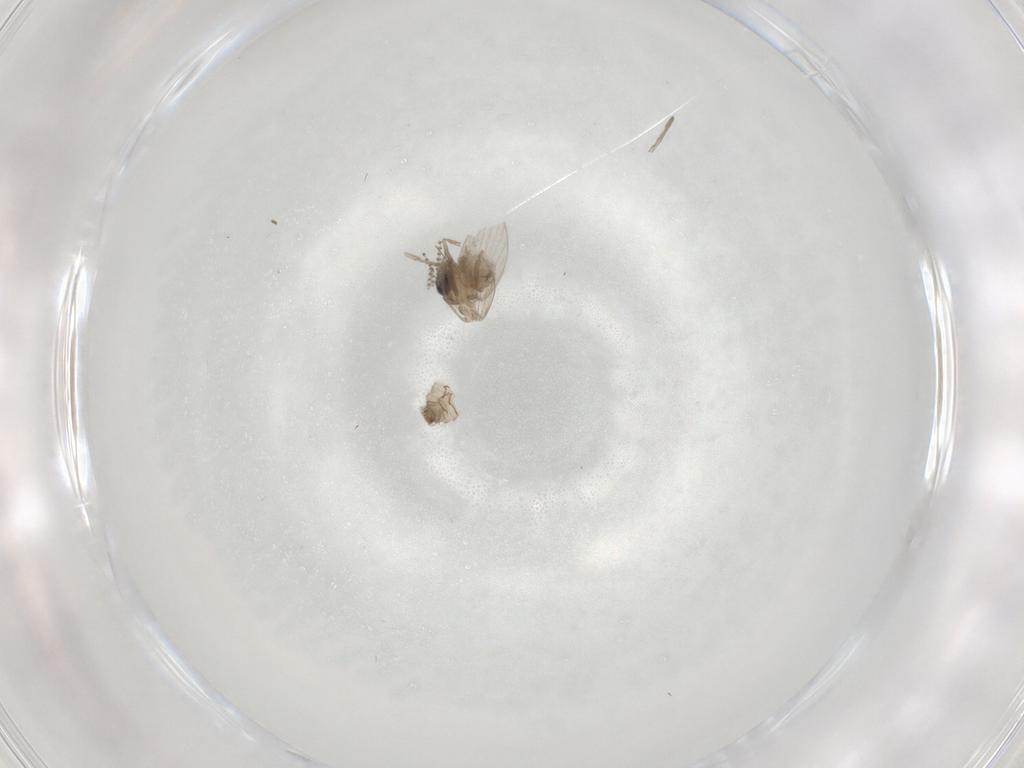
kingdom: Animalia
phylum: Arthropoda
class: Insecta
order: Diptera
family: Psychodidae
